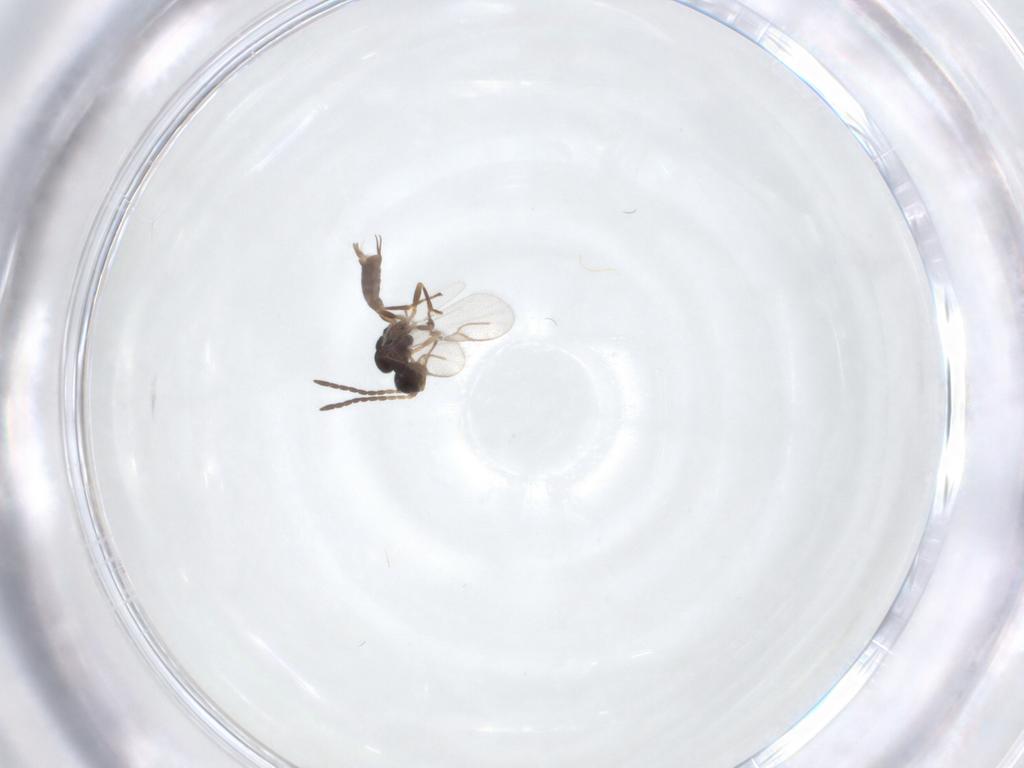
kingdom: Animalia
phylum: Arthropoda
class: Insecta
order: Hymenoptera
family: Braconidae
